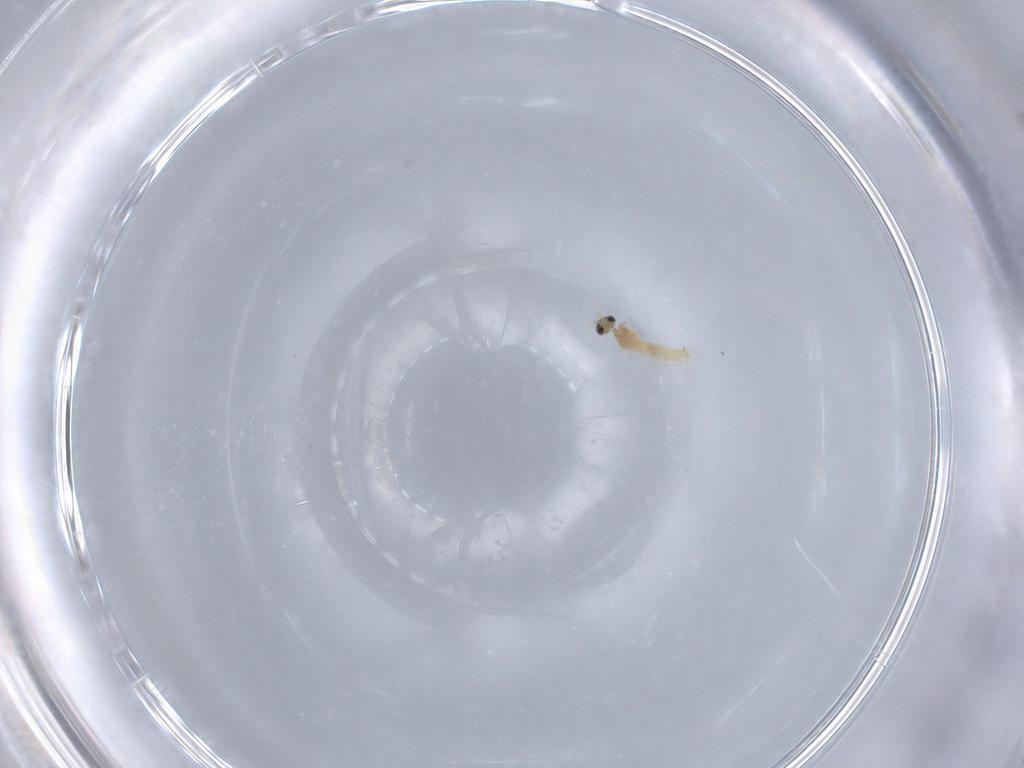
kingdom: Animalia
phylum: Arthropoda
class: Insecta
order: Diptera
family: Cecidomyiidae
